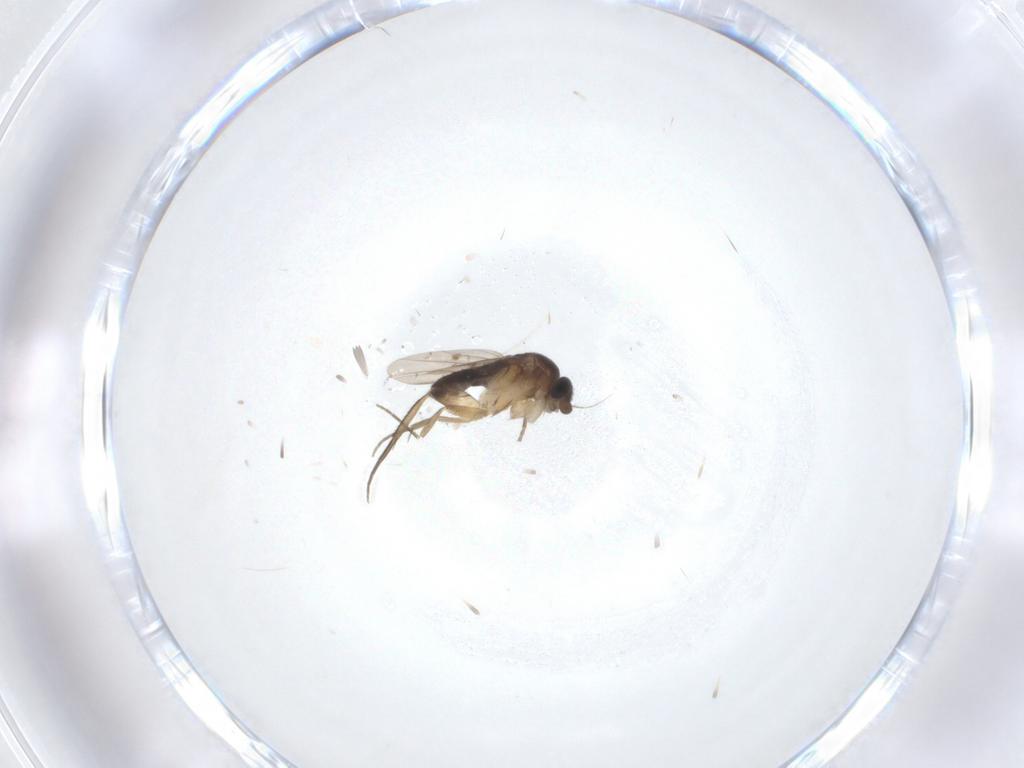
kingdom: Animalia
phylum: Arthropoda
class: Insecta
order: Diptera
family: Phoridae
